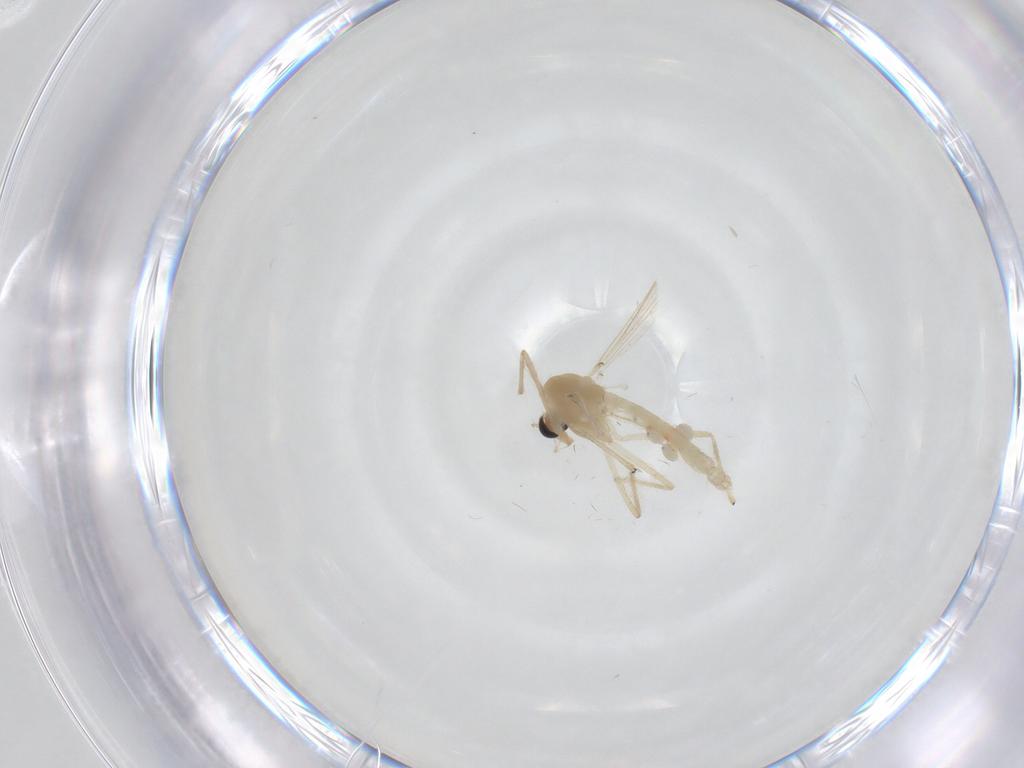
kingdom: Animalia
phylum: Arthropoda
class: Insecta
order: Diptera
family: Chironomidae
